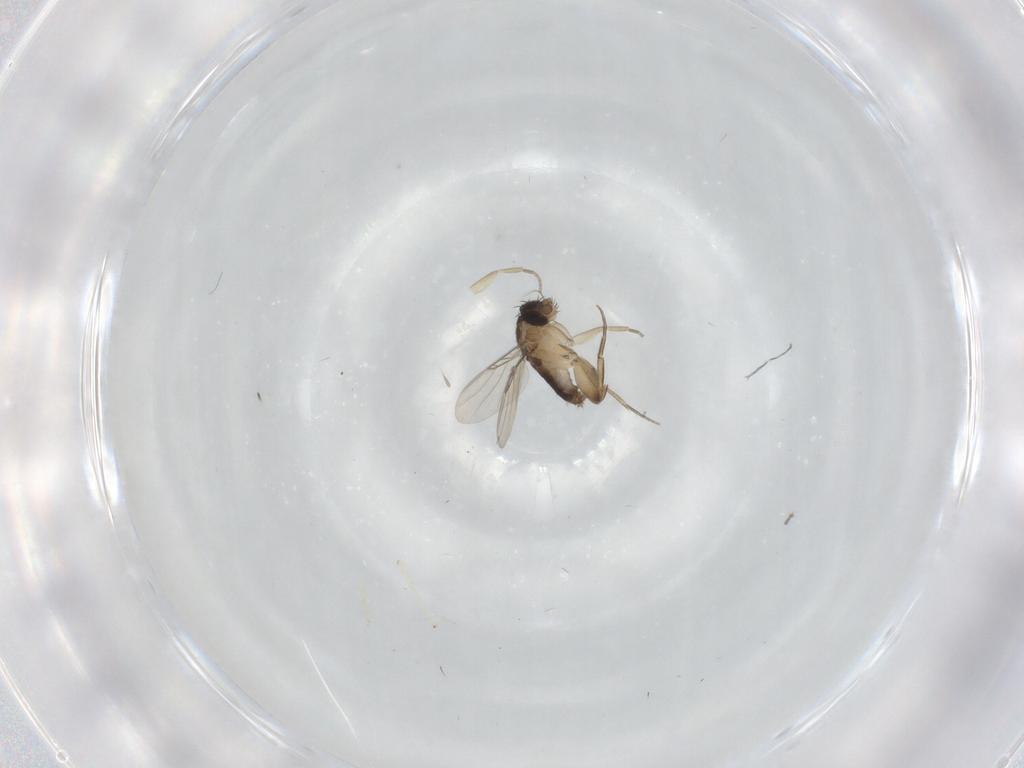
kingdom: Animalia
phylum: Arthropoda
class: Insecta
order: Diptera
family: Phoridae
